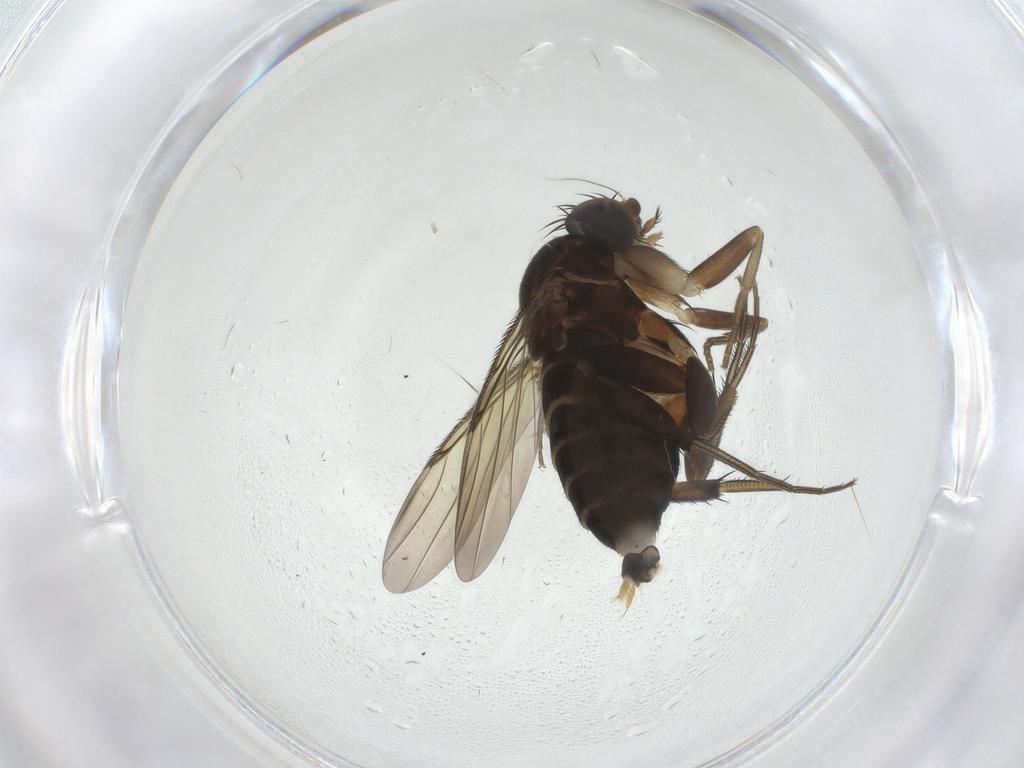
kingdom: Animalia
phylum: Arthropoda
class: Insecta
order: Diptera
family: Phoridae
